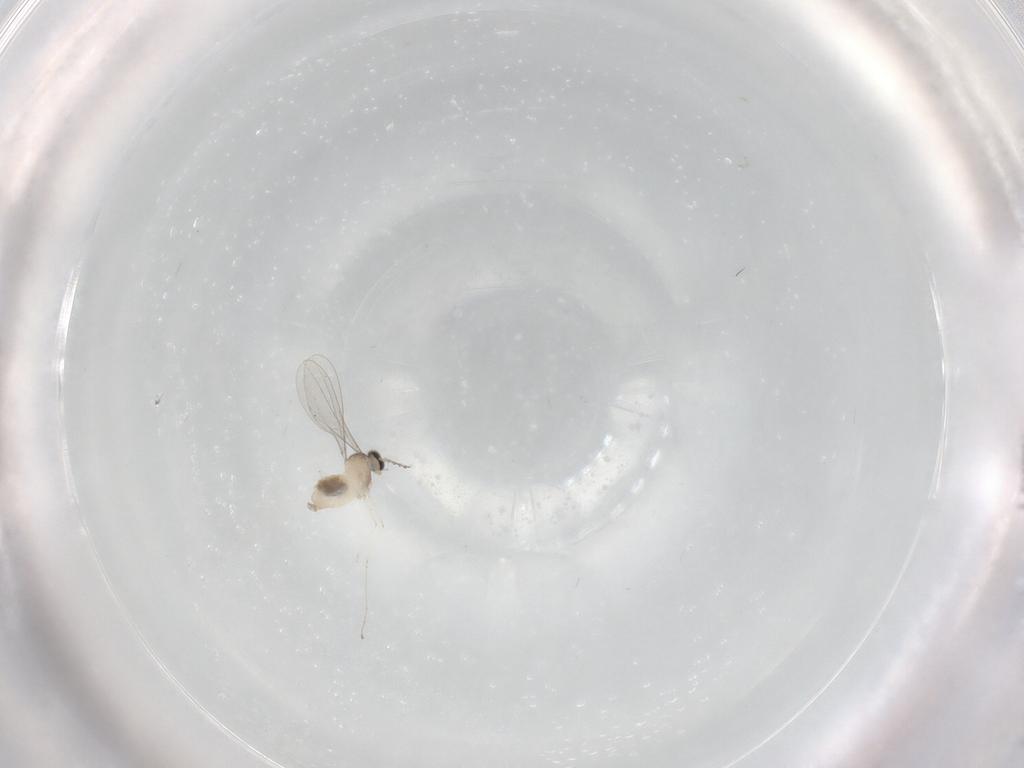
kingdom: Animalia
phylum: Arthropoda
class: Insecta
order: Diptera
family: Cecidomyiidae
